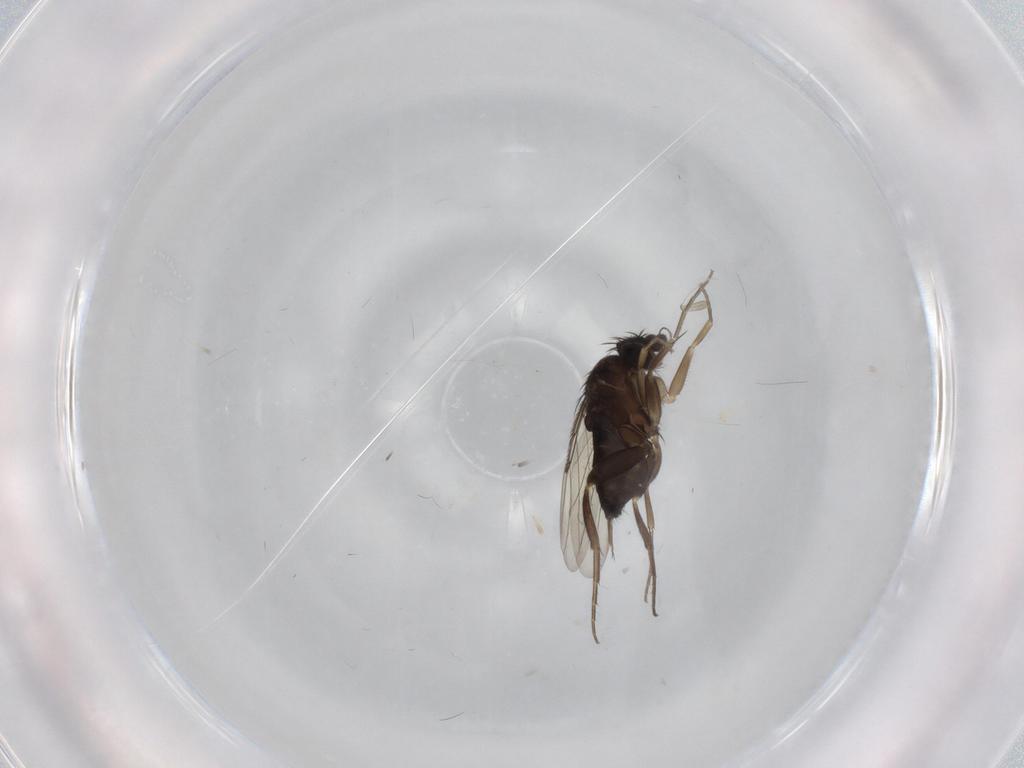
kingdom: Animalia
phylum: Arthropoda
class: Insecta
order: Diptera
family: Phoridae
